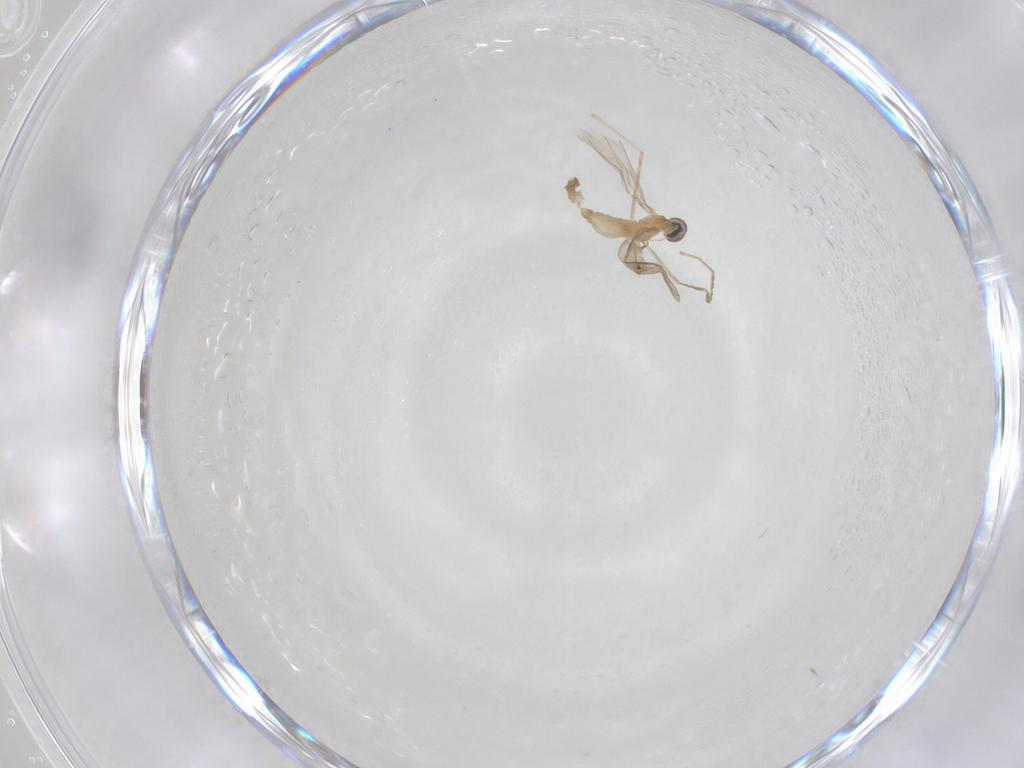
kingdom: Animalia
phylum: Arthropoda
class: Insecta
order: Diptera
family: Cecidomyiidae
